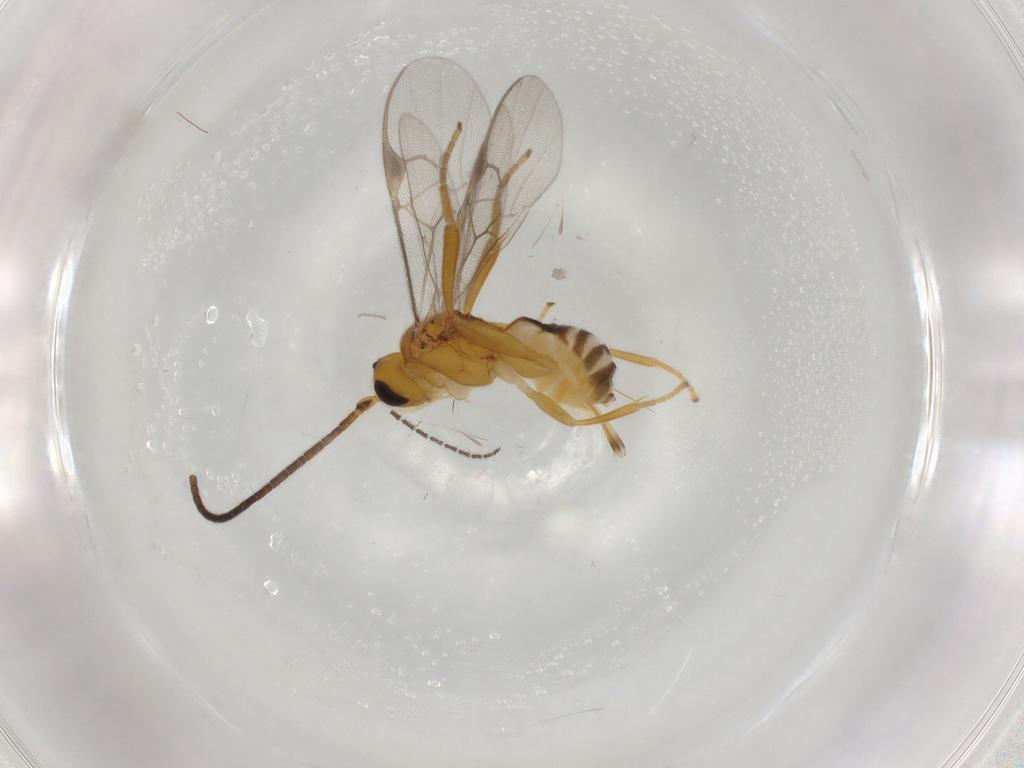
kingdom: Animalia
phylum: Arthropoda
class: Insecta
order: Hymenoptera
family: Braconidae
